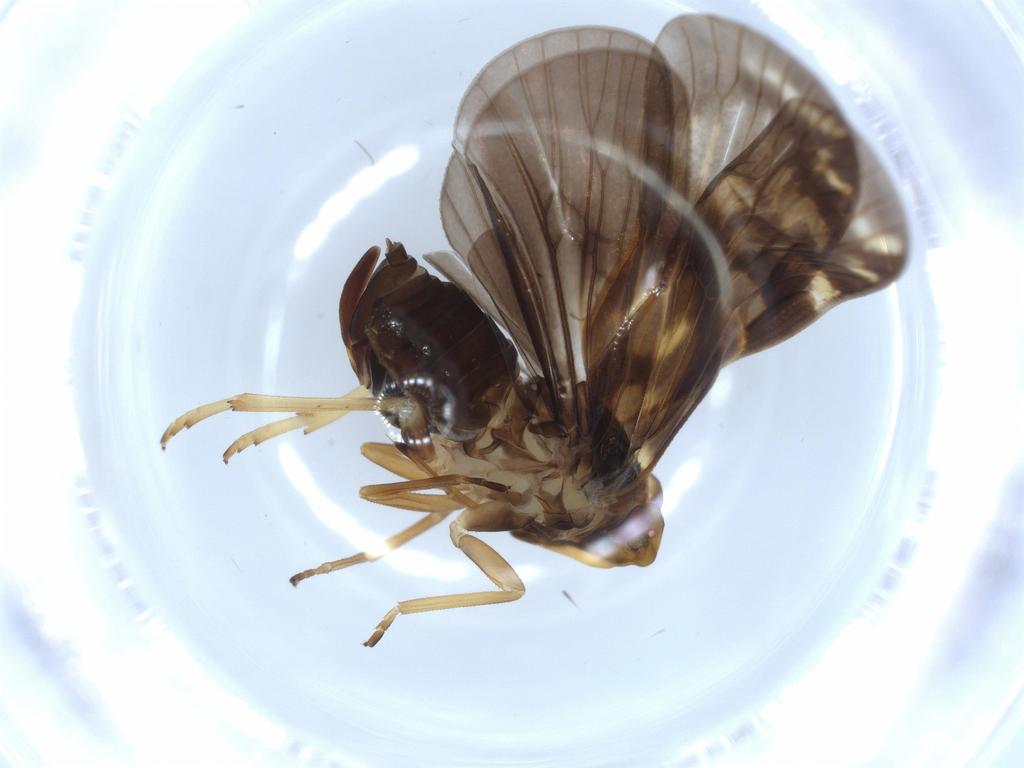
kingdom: Animalia
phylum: Arthropoda
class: Insecta
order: Hemiptera
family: Cixiidae
